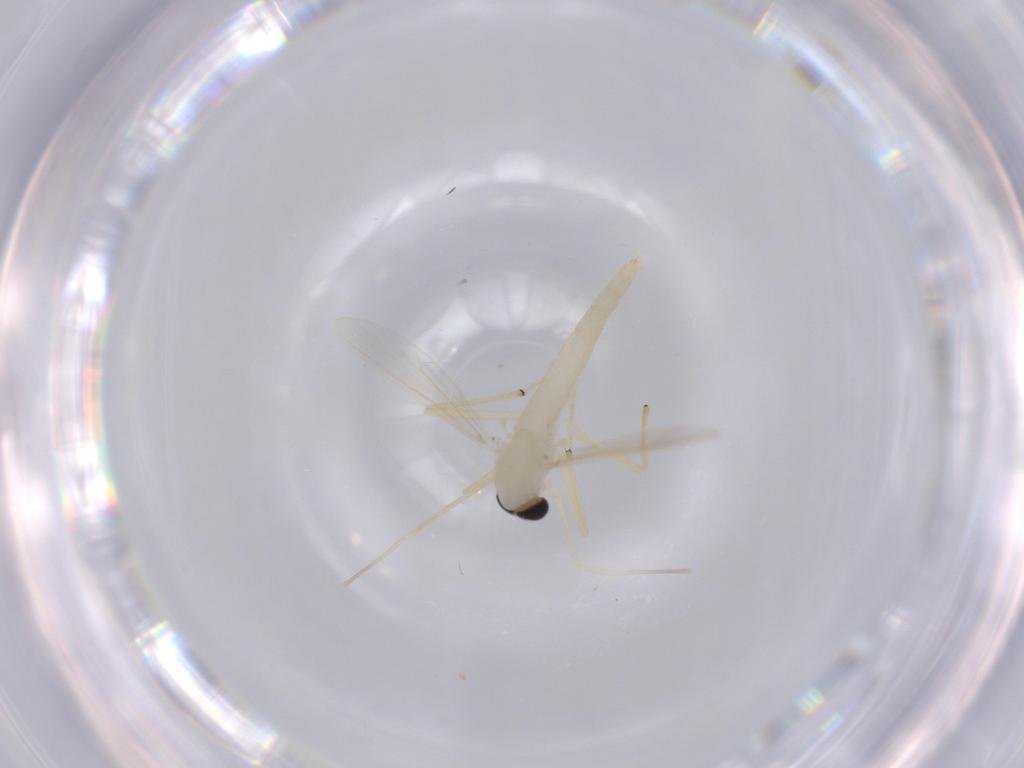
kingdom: Animalia
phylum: Arthropoda
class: Insecta
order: Diptera
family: Chironomidae
